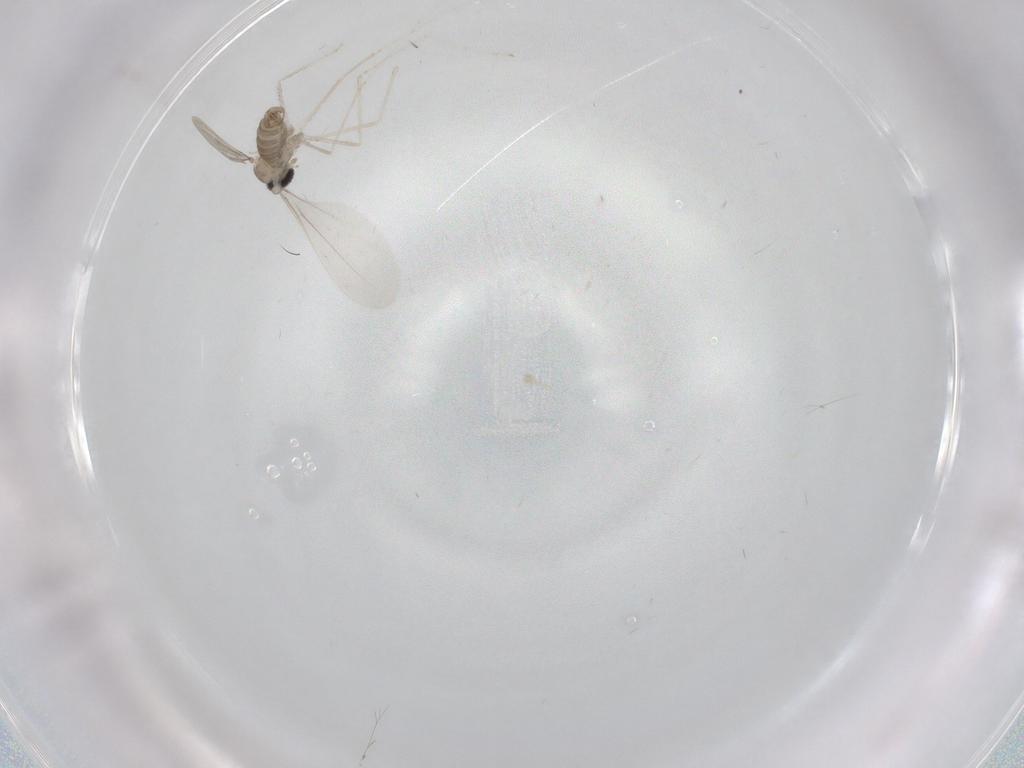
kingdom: Animalia
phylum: Arthropoda
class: Insecta
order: Diptera
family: Cecidomyiidae
